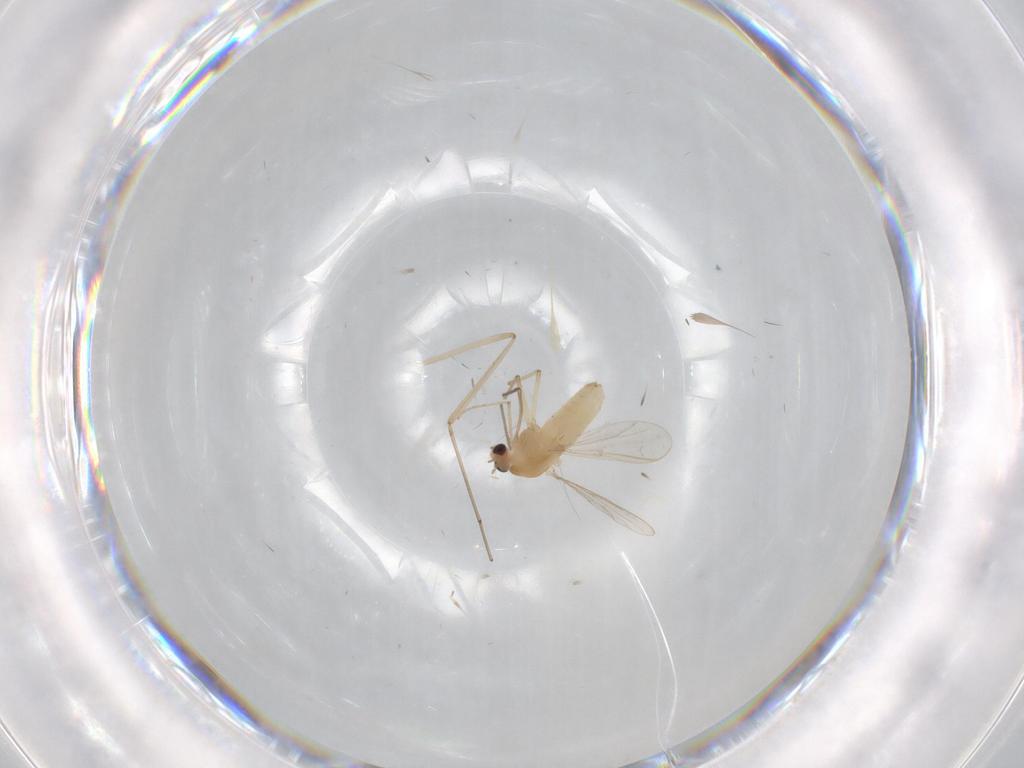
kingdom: Animalia
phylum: Arthropoda
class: Insecta
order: Diptera
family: Chironomidae
